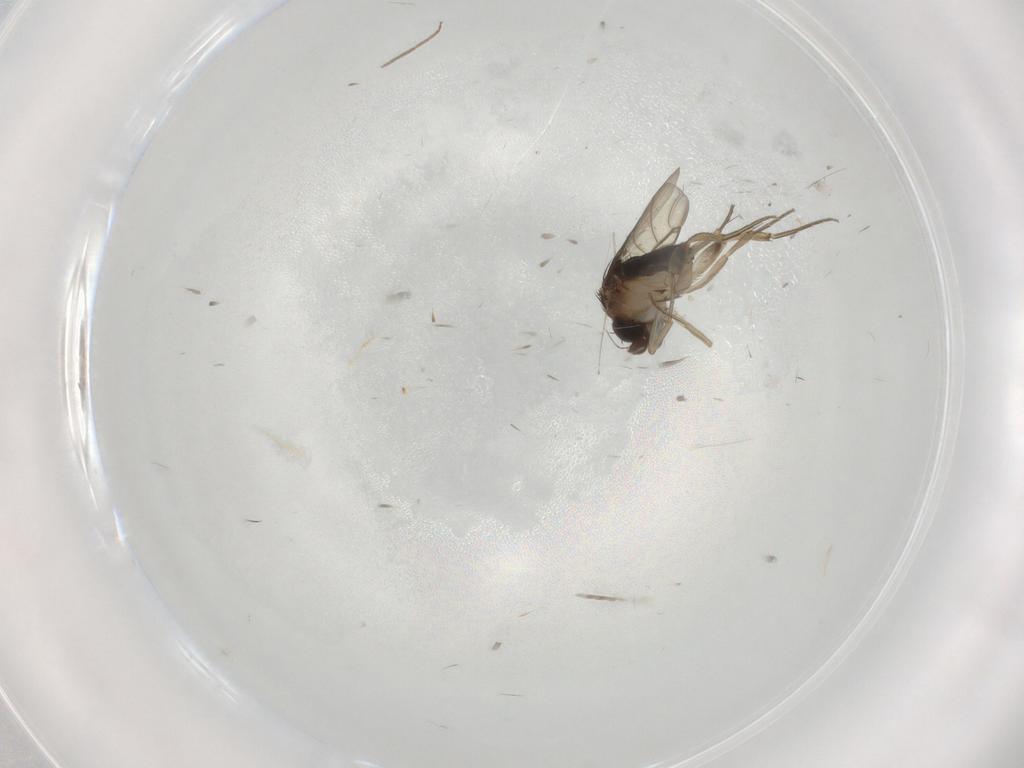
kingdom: Animalia
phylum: Arthropoda
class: Insecta
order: Diptera
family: Cecidomyiidae
